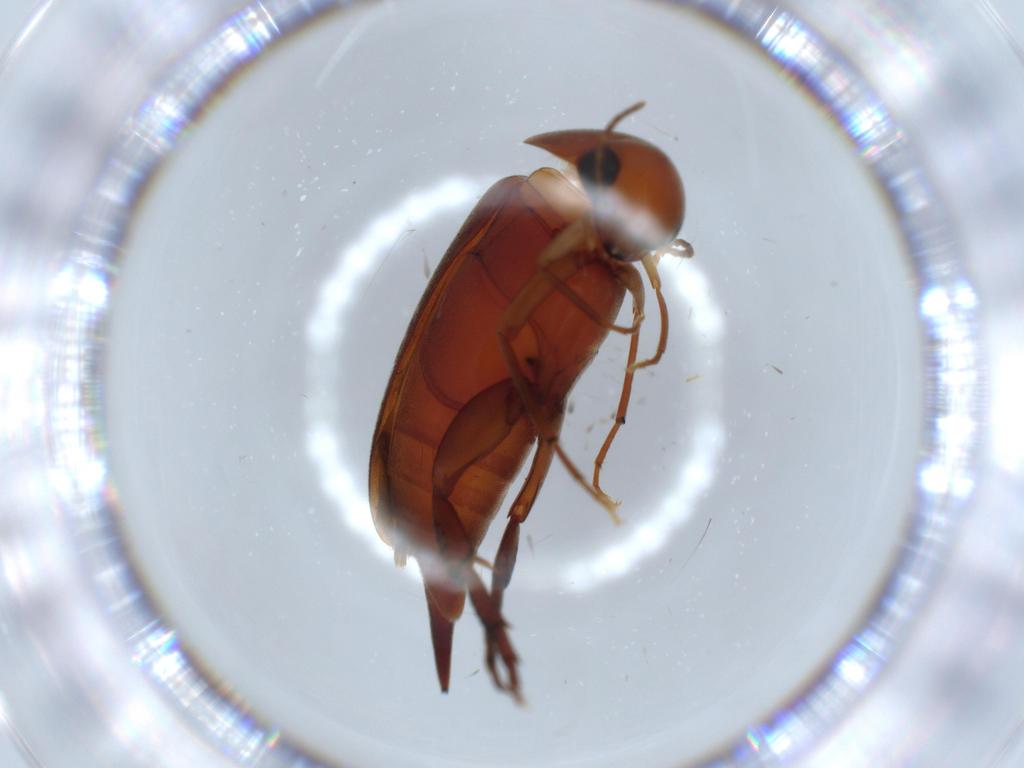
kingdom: Animalia
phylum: Arthropoda
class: Insecta
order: Coleoptera
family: Mordellidae
